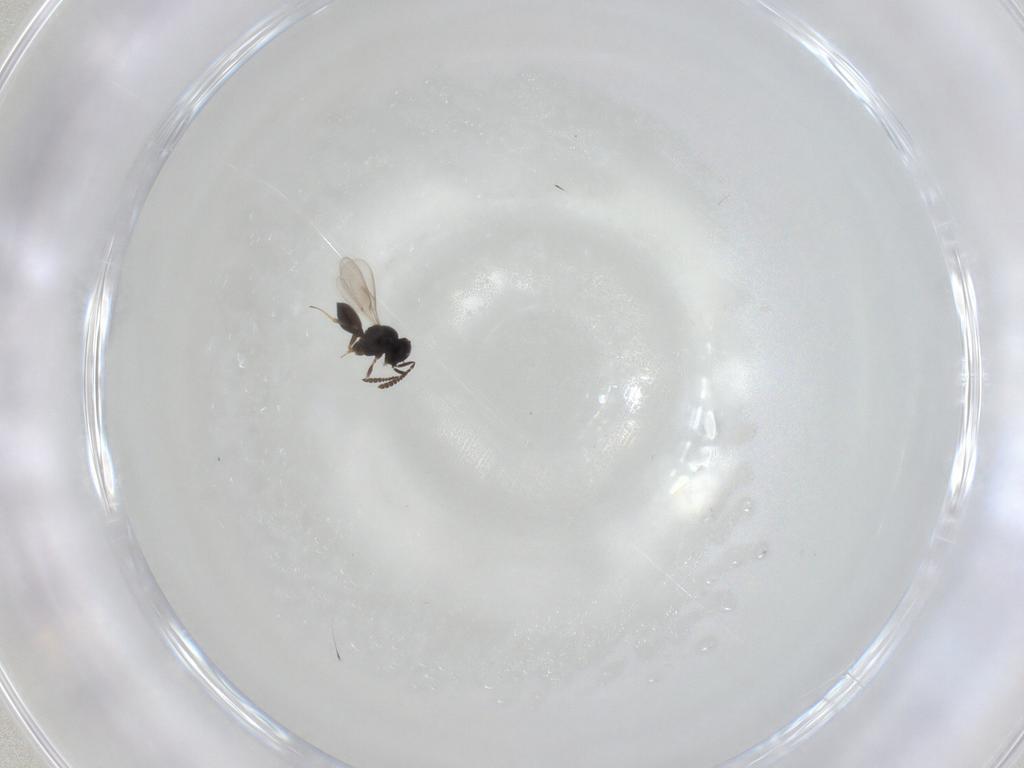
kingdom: Animalia
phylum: Arthropoda
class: Insecta
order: Hymenoptera
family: Scelionidae
